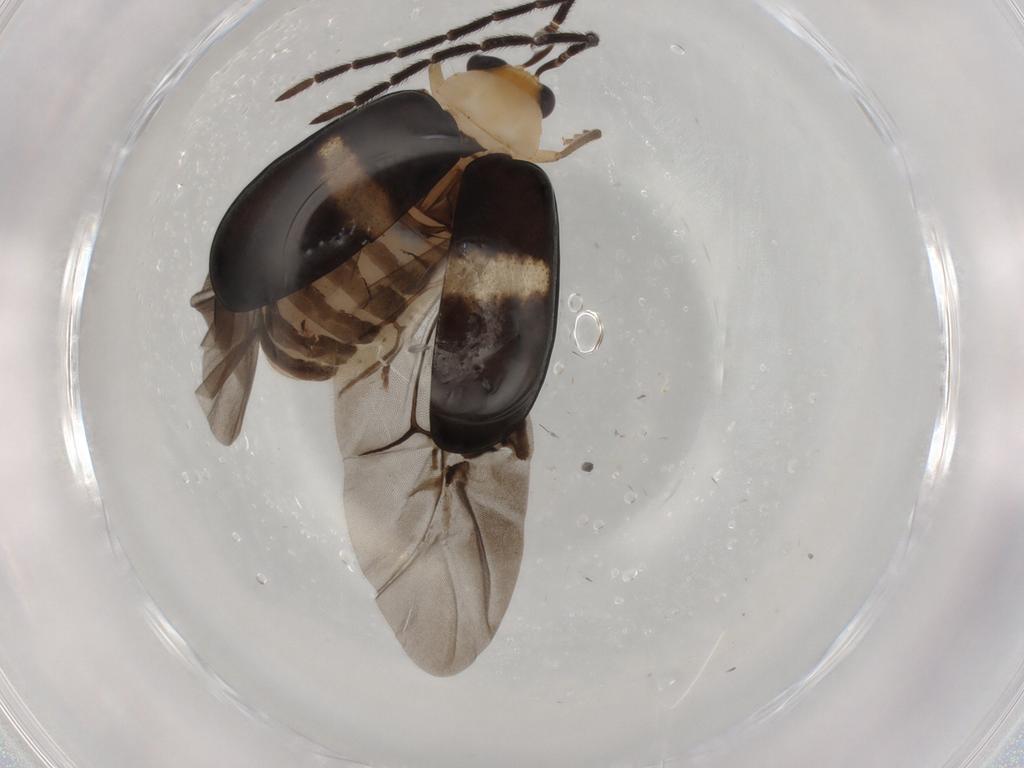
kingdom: Animalia
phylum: Arthropoda
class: Insecta
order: Coleoptera
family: Chrysomelidae
